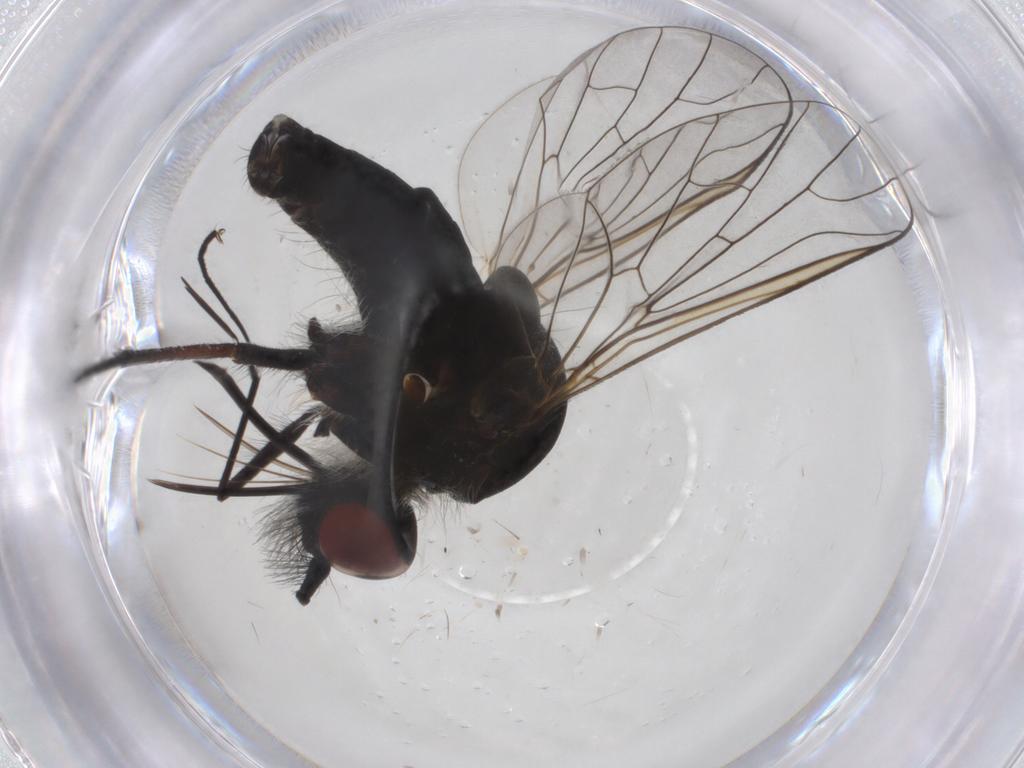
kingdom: Animalia
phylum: Arthropoda
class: Insecta
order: Diptera
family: Bombyliidae
